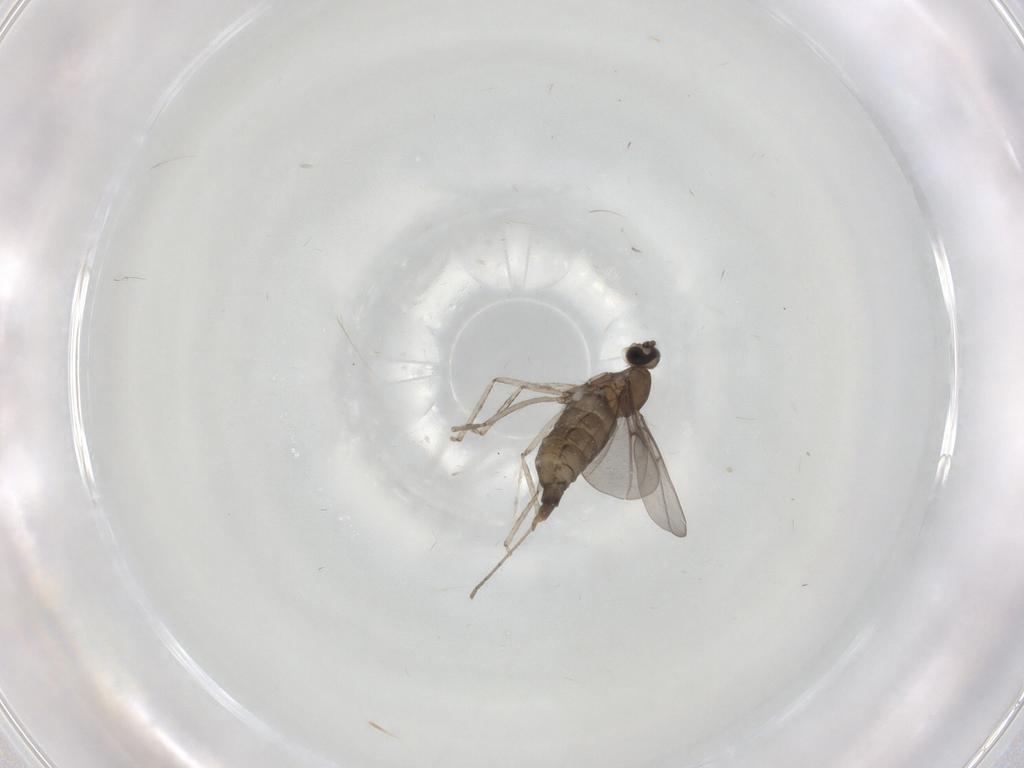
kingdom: Animalia
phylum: Arthropoda
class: Insecta
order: Diptera
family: Cecidomyiidae
